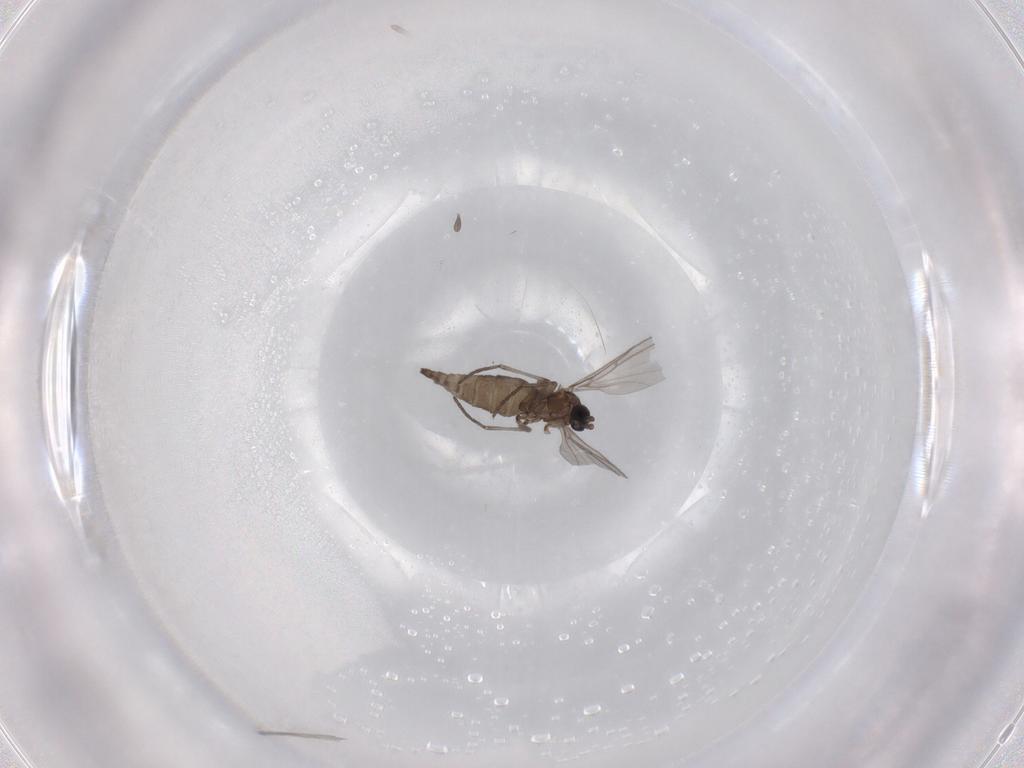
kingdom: Animalia
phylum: Arthropoda
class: Insecta
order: Diptera
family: Sciaridae
